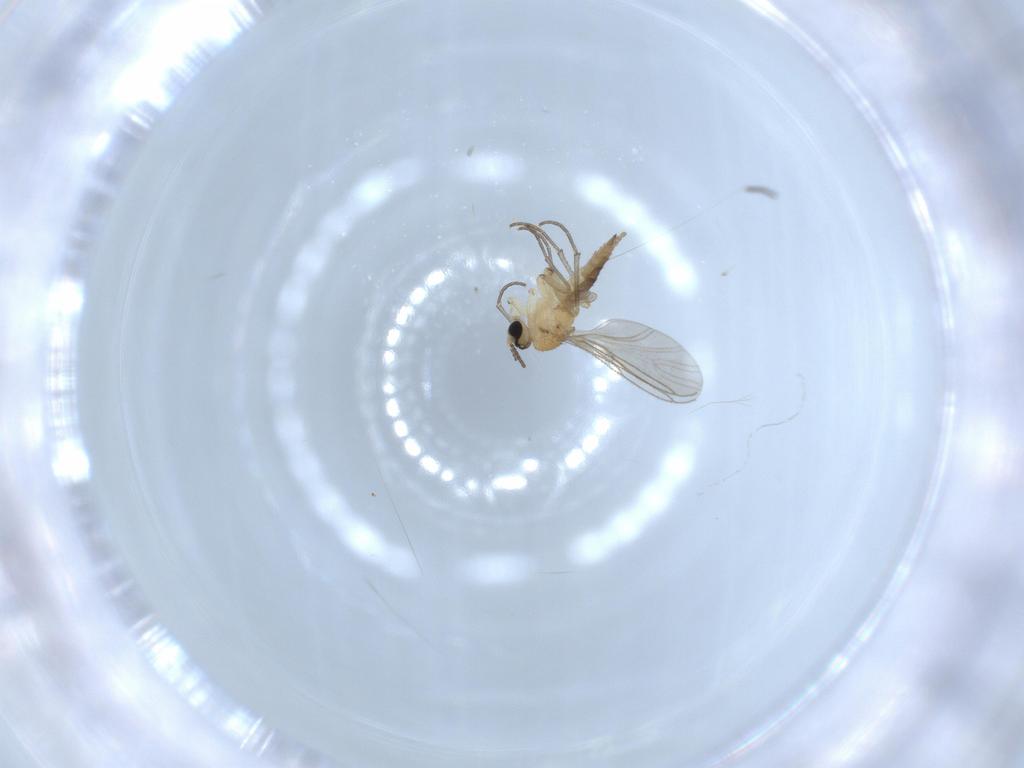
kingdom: Animalia
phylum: Arthropoda
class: Insecta
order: Diptera
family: Sciaridae
